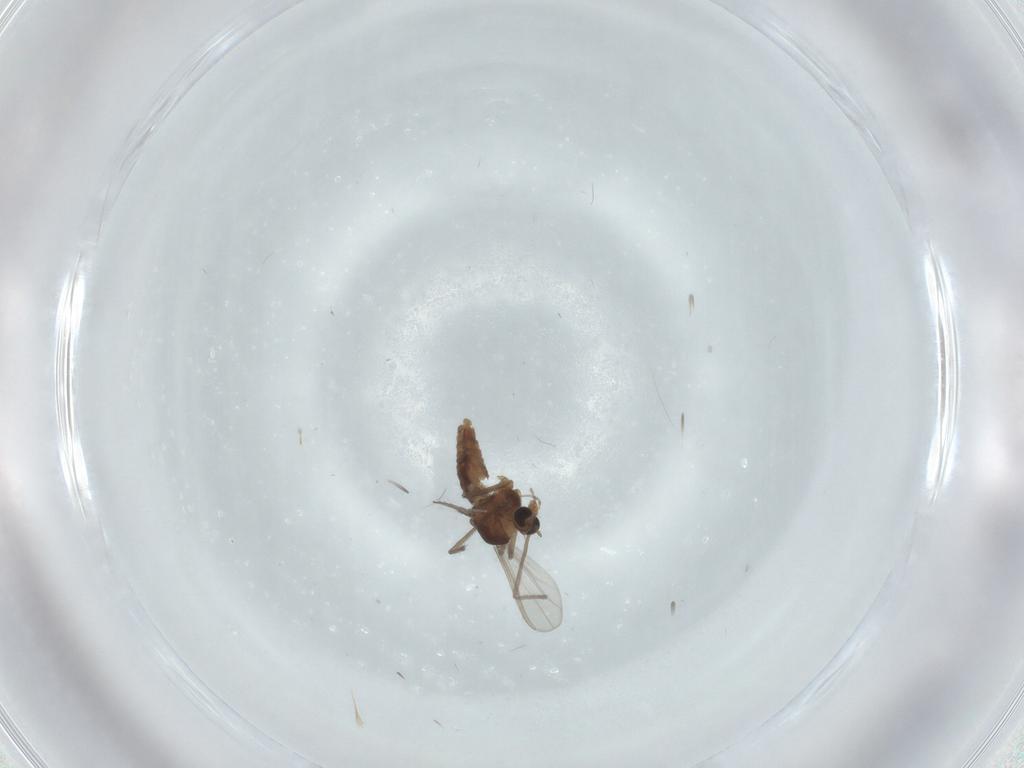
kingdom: Animalia
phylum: Arthropoda
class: Insecta
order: Diptera
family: Chironomidae
